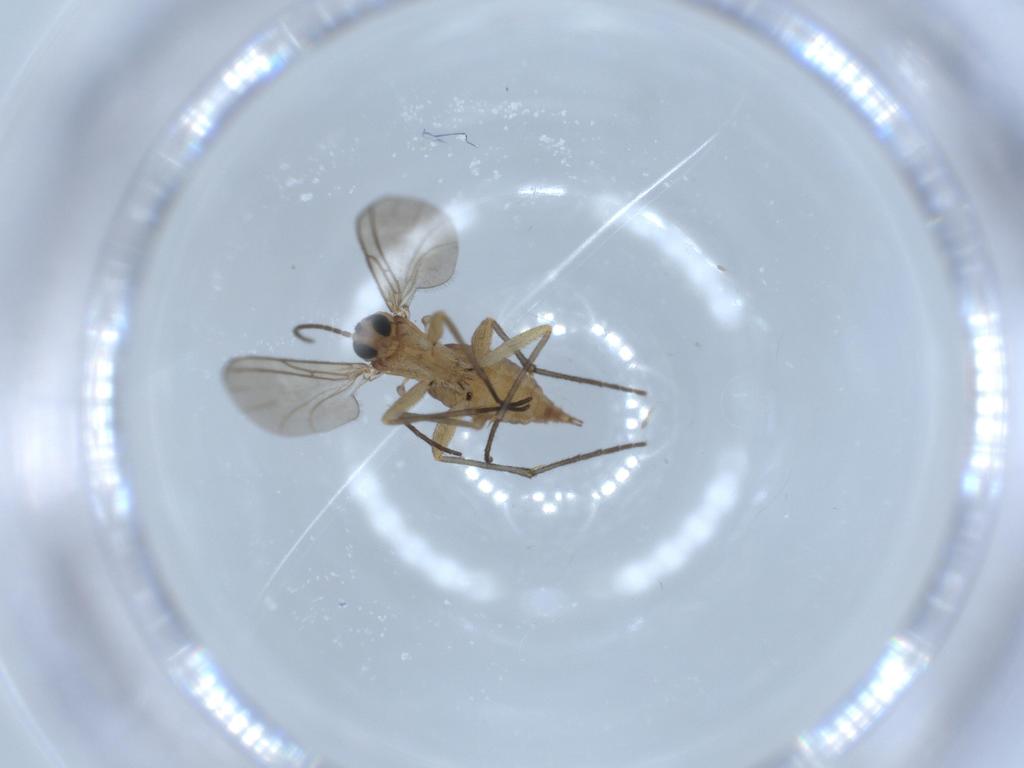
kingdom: Animalia
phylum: Arthropoda
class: Insecta
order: Diptera
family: Sciaridae
